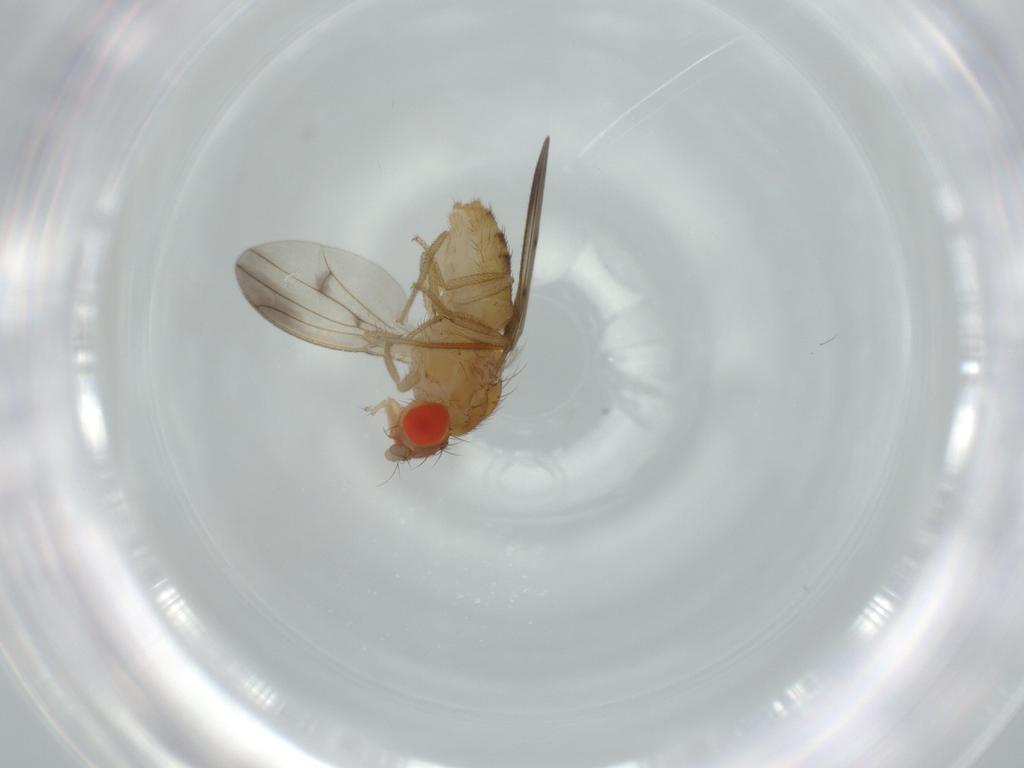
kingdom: Animalia
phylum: Arthropoda
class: Insecta
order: Diptera
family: Drosophilidae
